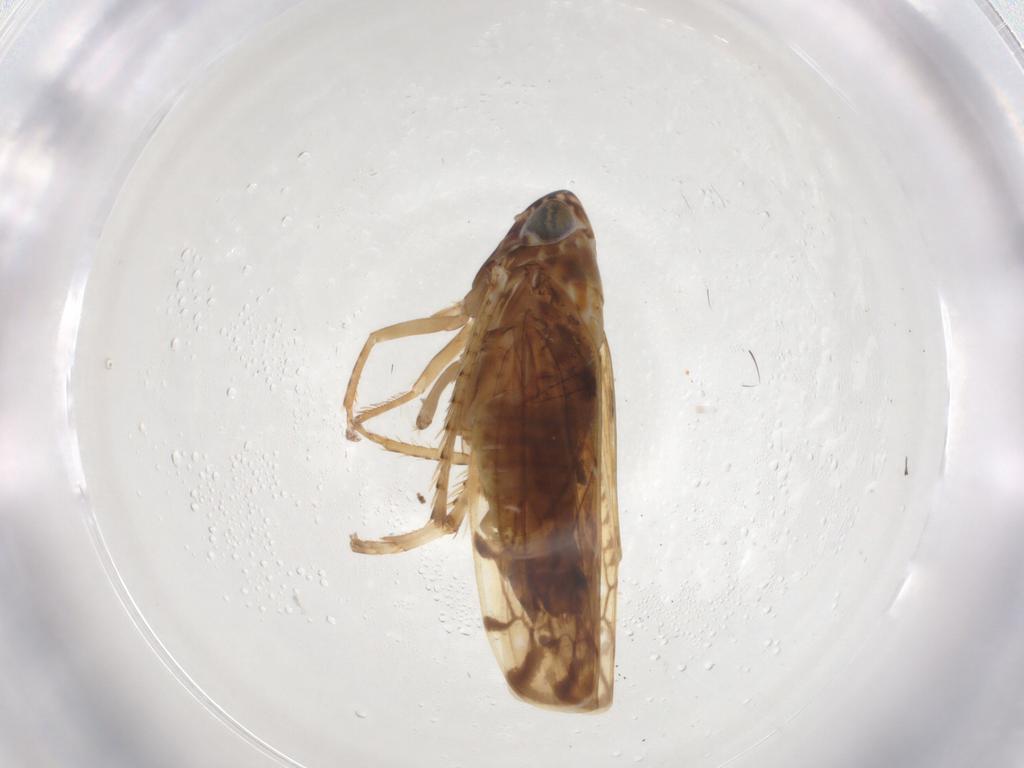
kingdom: Animalia
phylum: Arthropoda
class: Insecta
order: Hemiptera
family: Cicadellidae
